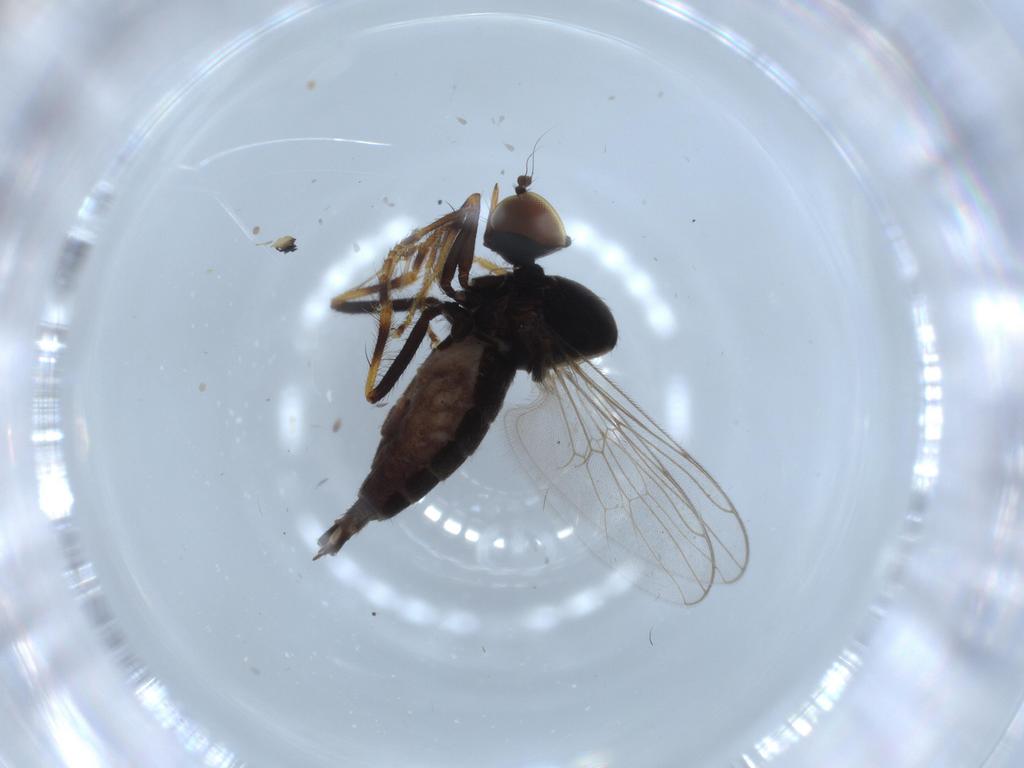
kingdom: Animalia
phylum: Arthropoda
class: Insecta
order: Diptera
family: Hybotidae
